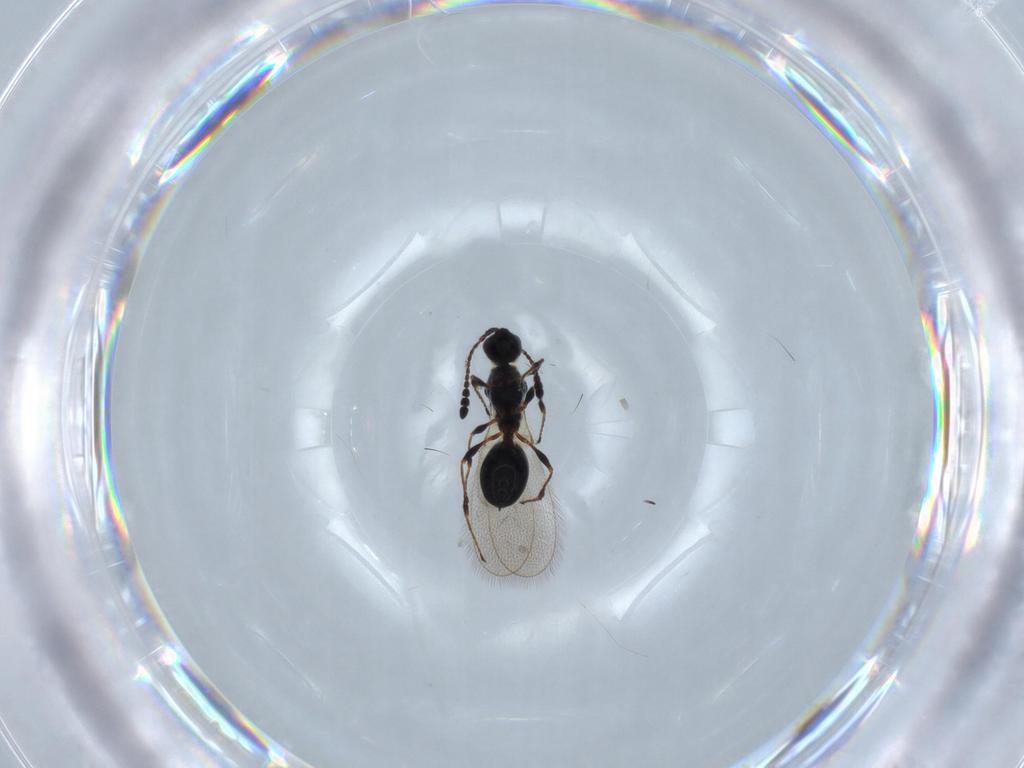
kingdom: Animalia
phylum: Arthropoda
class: Insecta
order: Hymenoptera
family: Diapriidae
